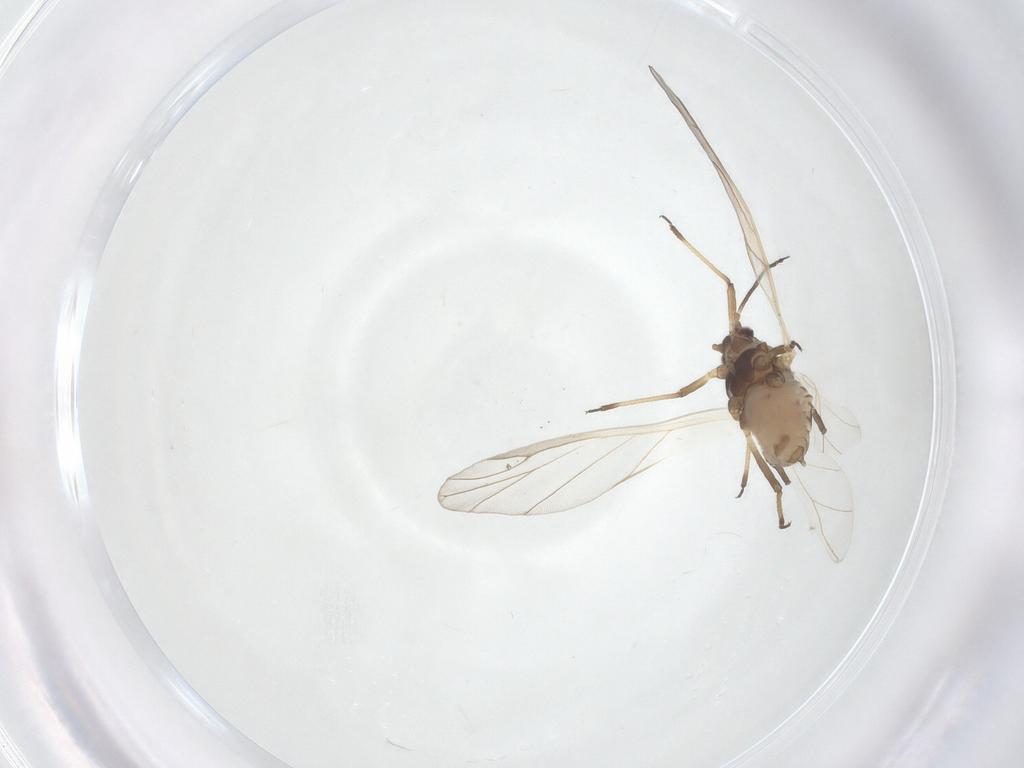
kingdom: Animalia
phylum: Arthropoda
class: Insecta
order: Hemiptera
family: Aphididae
